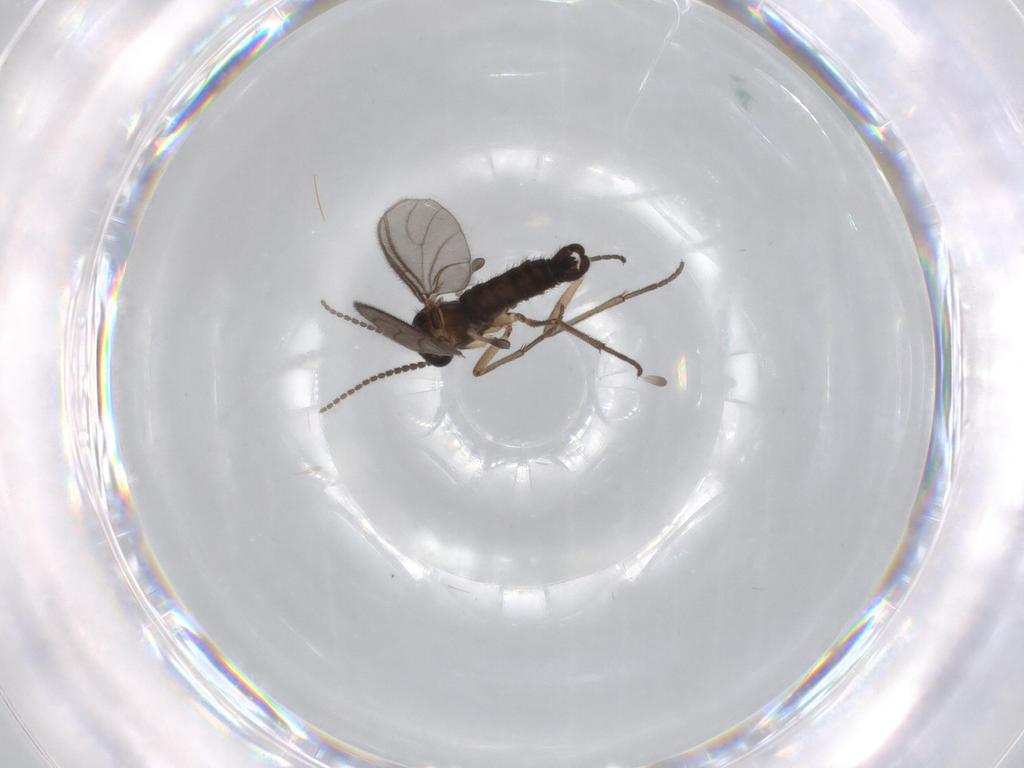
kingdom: Animalia
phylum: Arthropoda
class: Insecta
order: Diptera
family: Sciaridae
